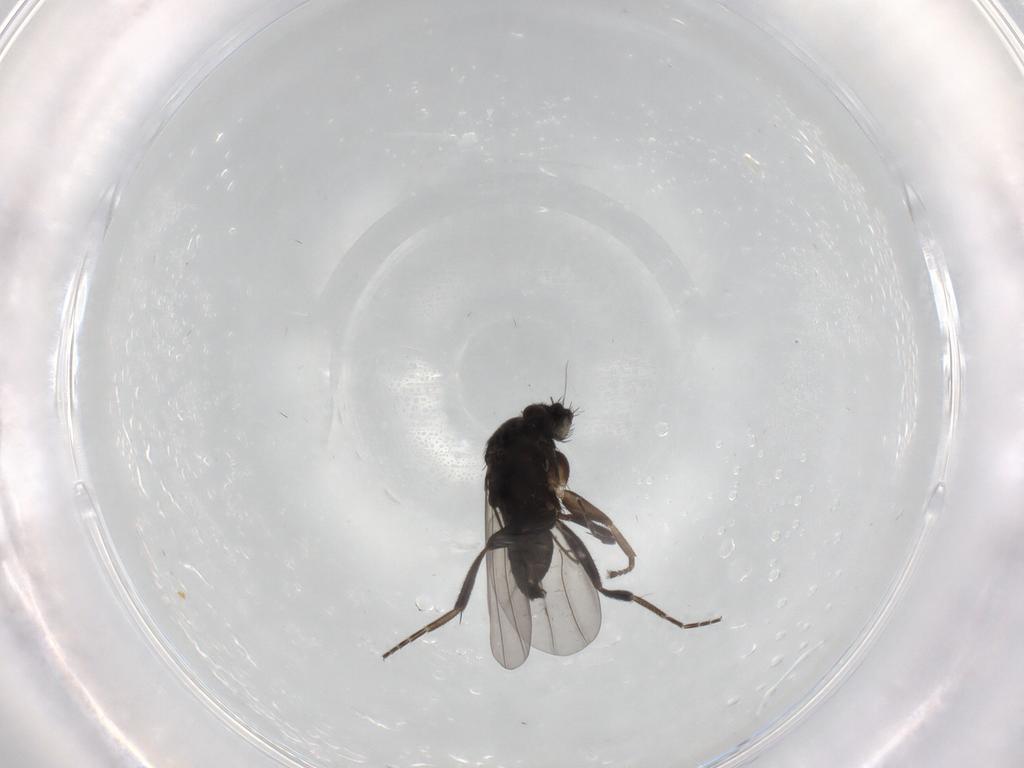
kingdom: Animalia
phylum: Arthropoda
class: Insecta
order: Diptera
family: Phoridae
